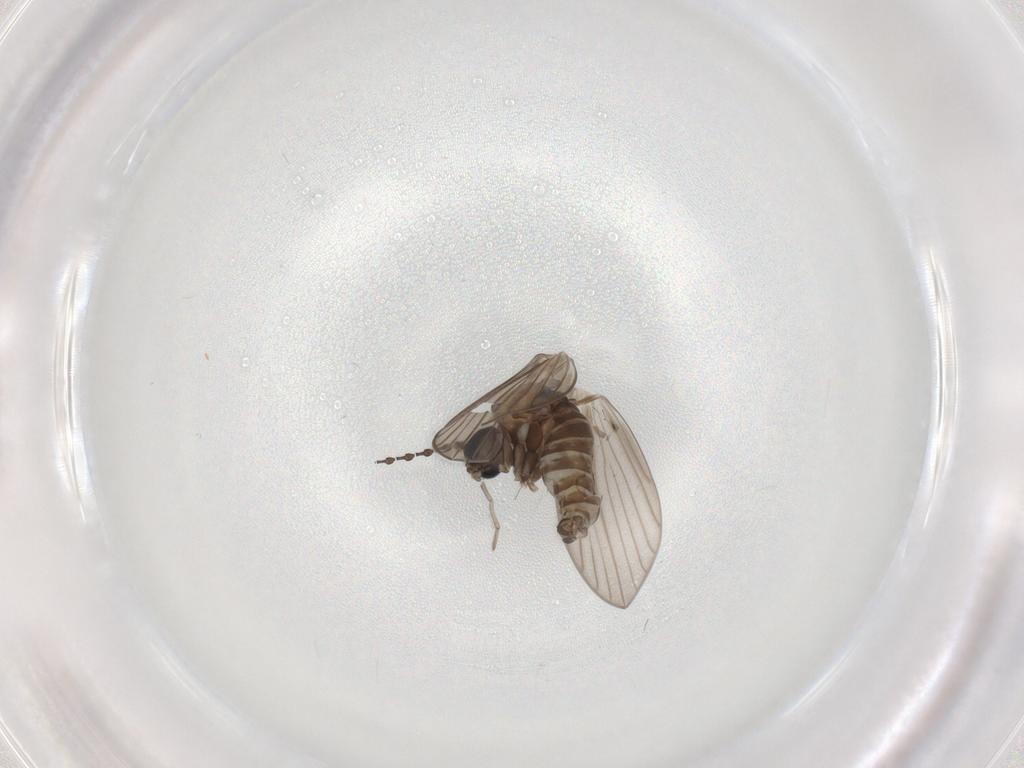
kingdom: Animalia
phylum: Arthropoda
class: Insecta
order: Diptera
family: Psychodidae
